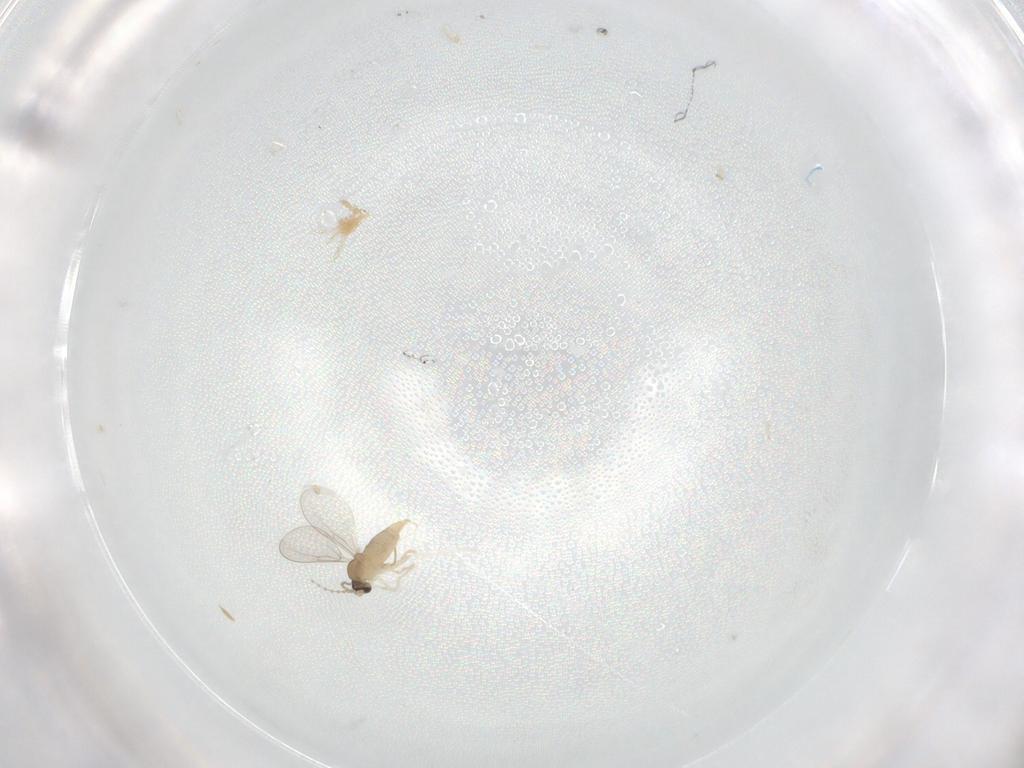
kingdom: Animalia
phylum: Arthropoda
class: Insecta
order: Diptera
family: Cecidomyiidae
